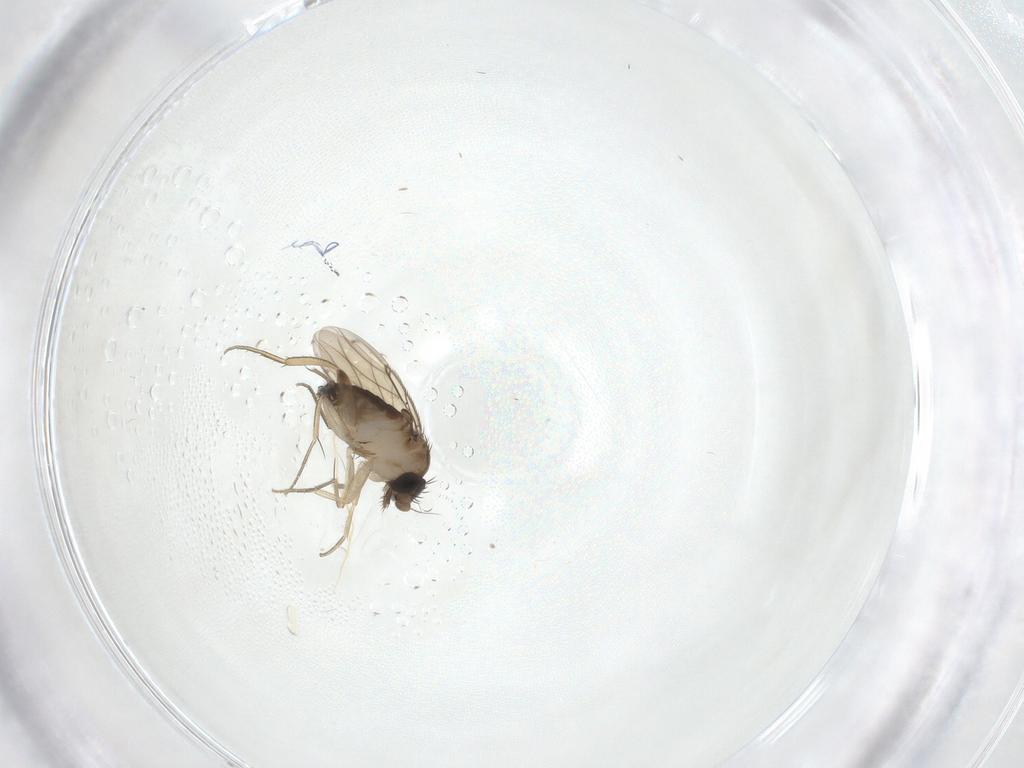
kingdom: Animalia
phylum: Arthropoda
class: Insecta
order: Diptera
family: Cecidomyiidae
